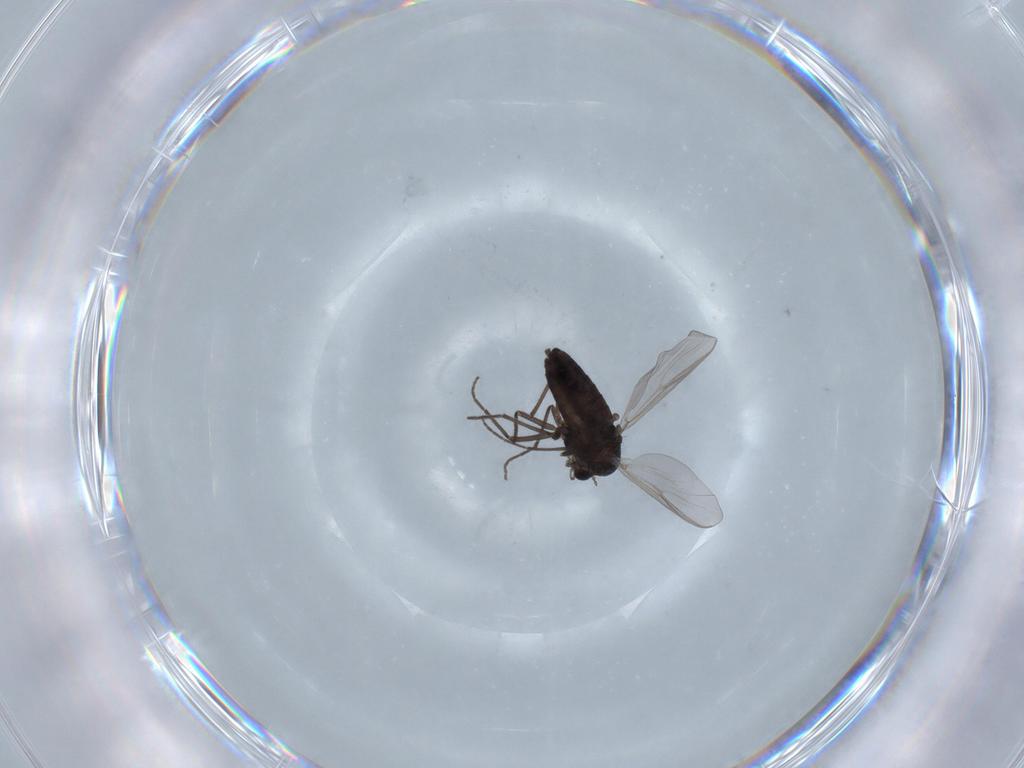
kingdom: Animalia
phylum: Arthropoda
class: Insecta
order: Diptera
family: Chironomidae
